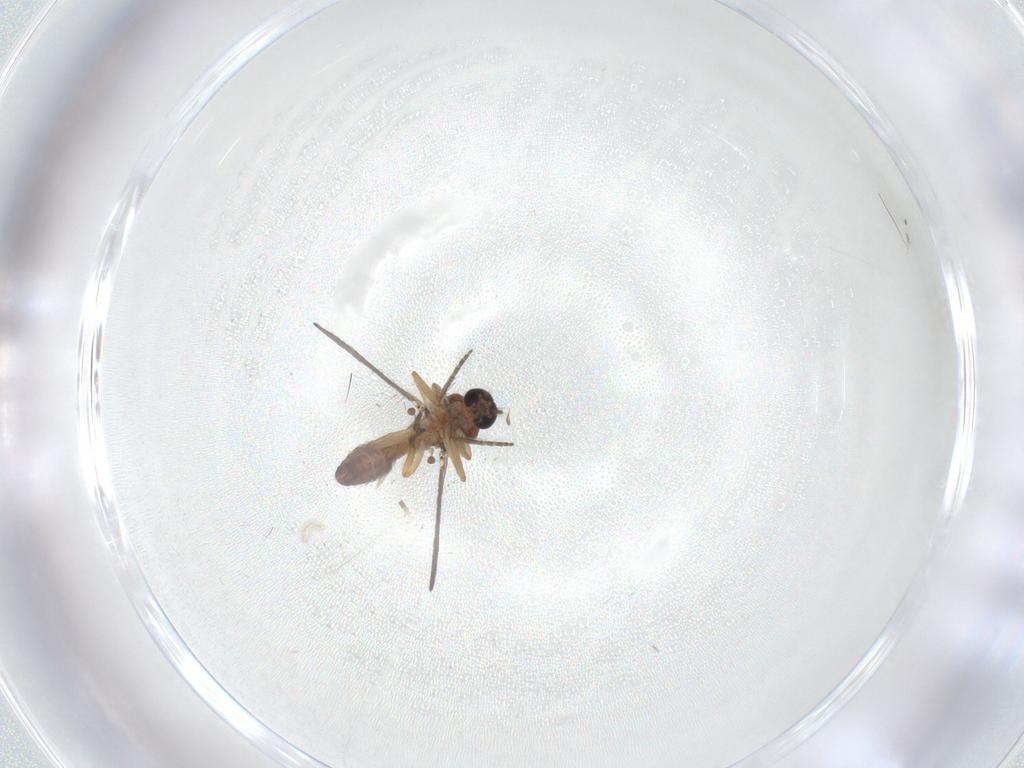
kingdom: Animalia
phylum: Arthropoda
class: Insecta
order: Diptera
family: Ceratopogonidae
